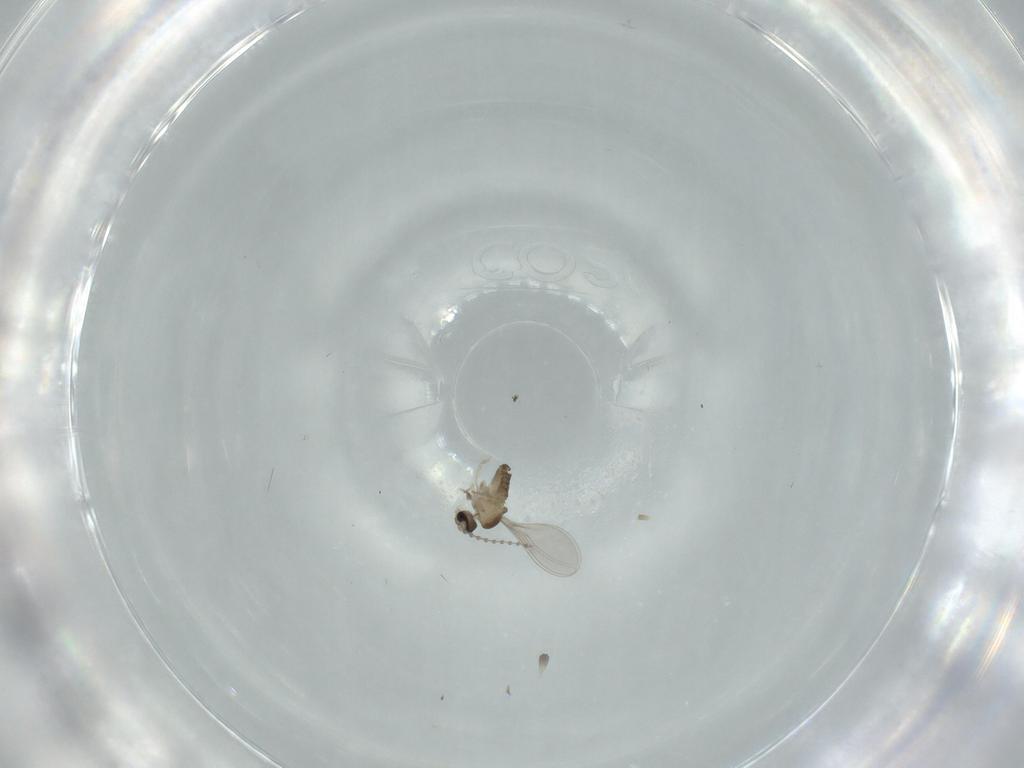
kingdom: Animalia
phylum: Arthropoda
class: Insecta
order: Diptera
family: Cecidomyiidae
